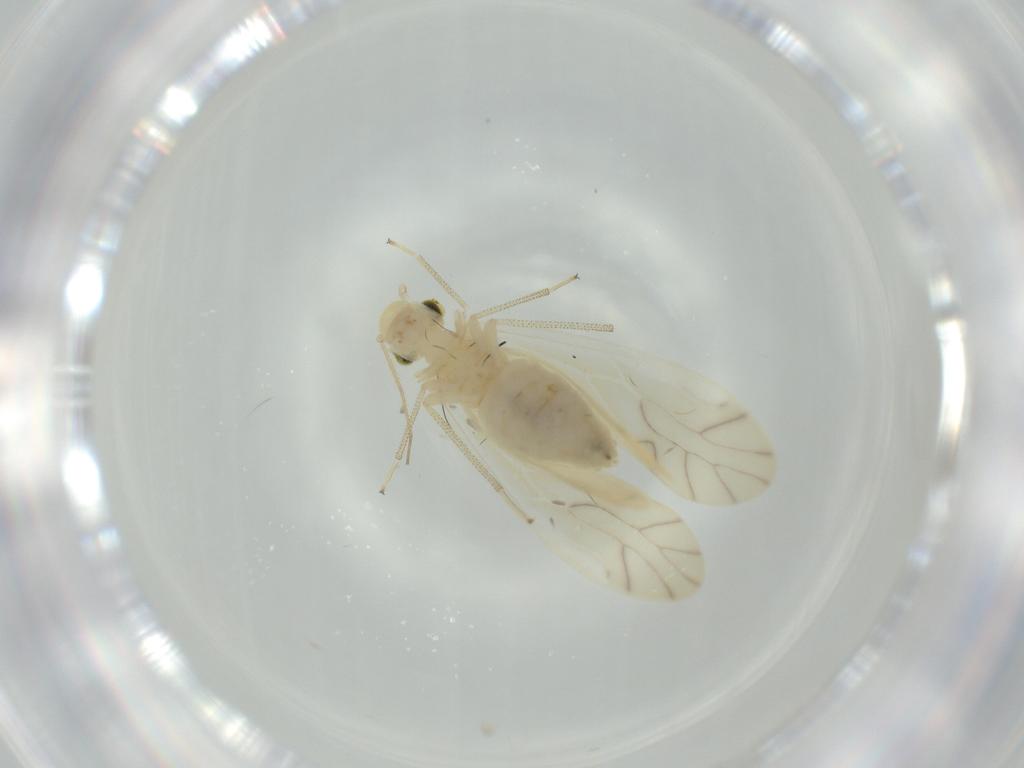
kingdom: Animalia
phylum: Arthropoda
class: Insecta
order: Psocodea
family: Caeciliusidae
